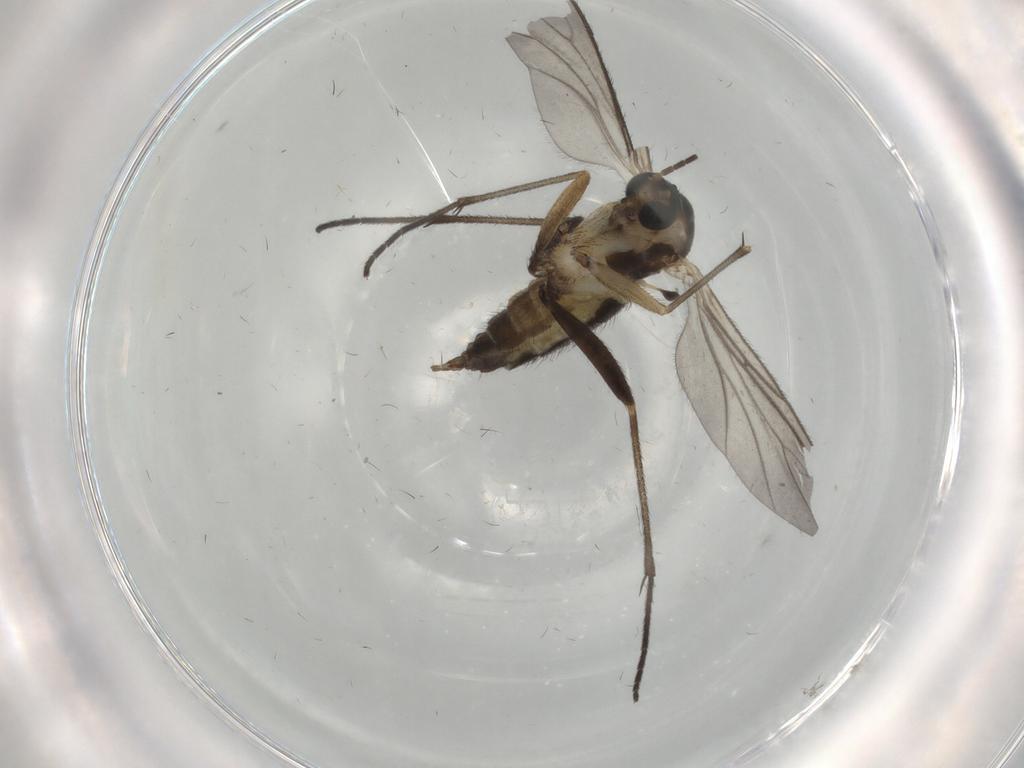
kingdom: Animalia
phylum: Arthropoda
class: Insecta
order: Diptera
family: Sciaridae
